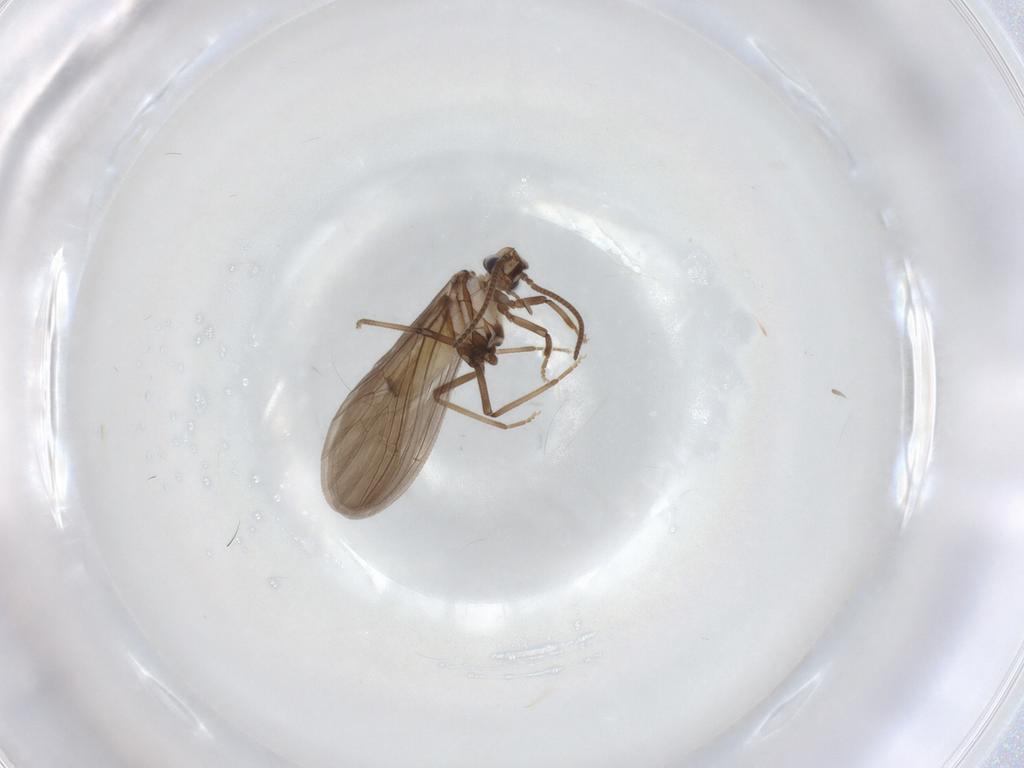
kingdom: Animalia
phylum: Arthropoda
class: Insecta
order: Neuroptera
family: Coniopterygidae
